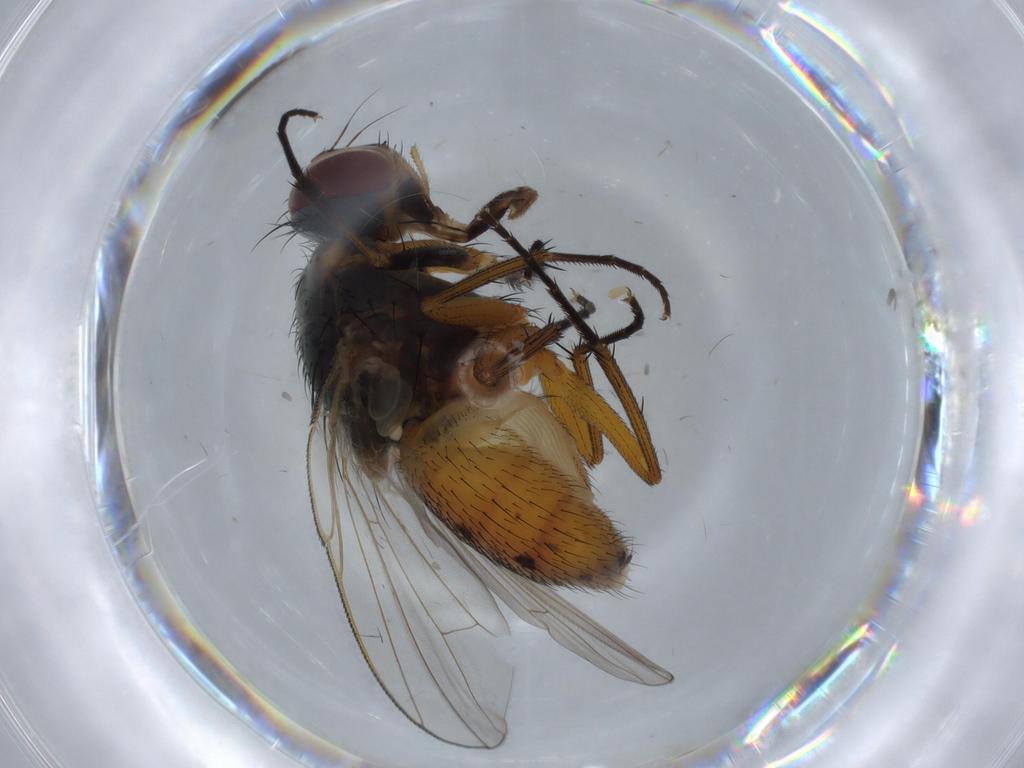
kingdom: Animalia
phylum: Arthropoda
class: Insecta
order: Diptera
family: Muscidae
